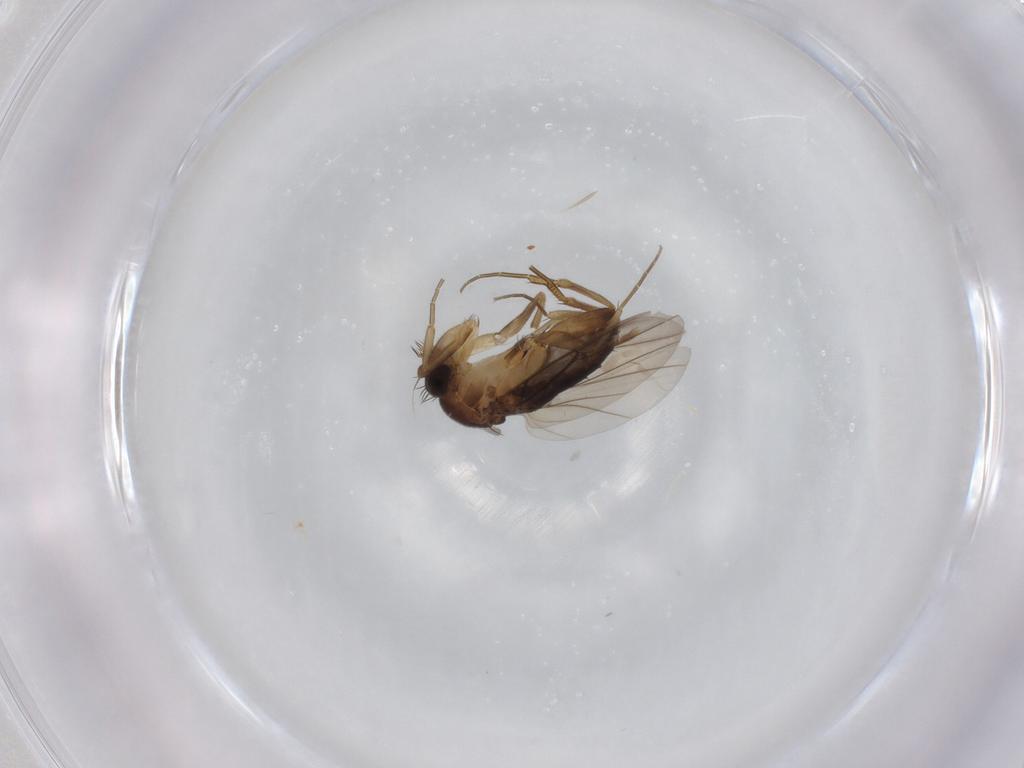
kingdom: Animalia
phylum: Arthropoda
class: Insecta
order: Diptera
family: Phoridae
